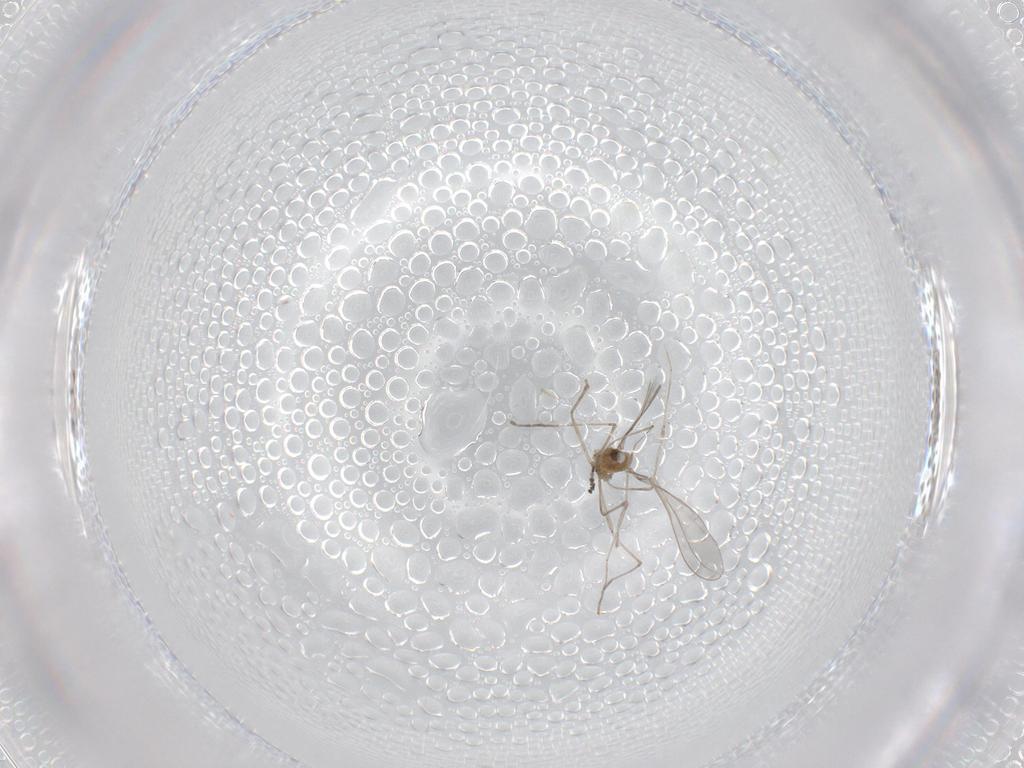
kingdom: Animalia
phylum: Arthropoda
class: Insecta
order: Diptera
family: Cecidomyiidae
